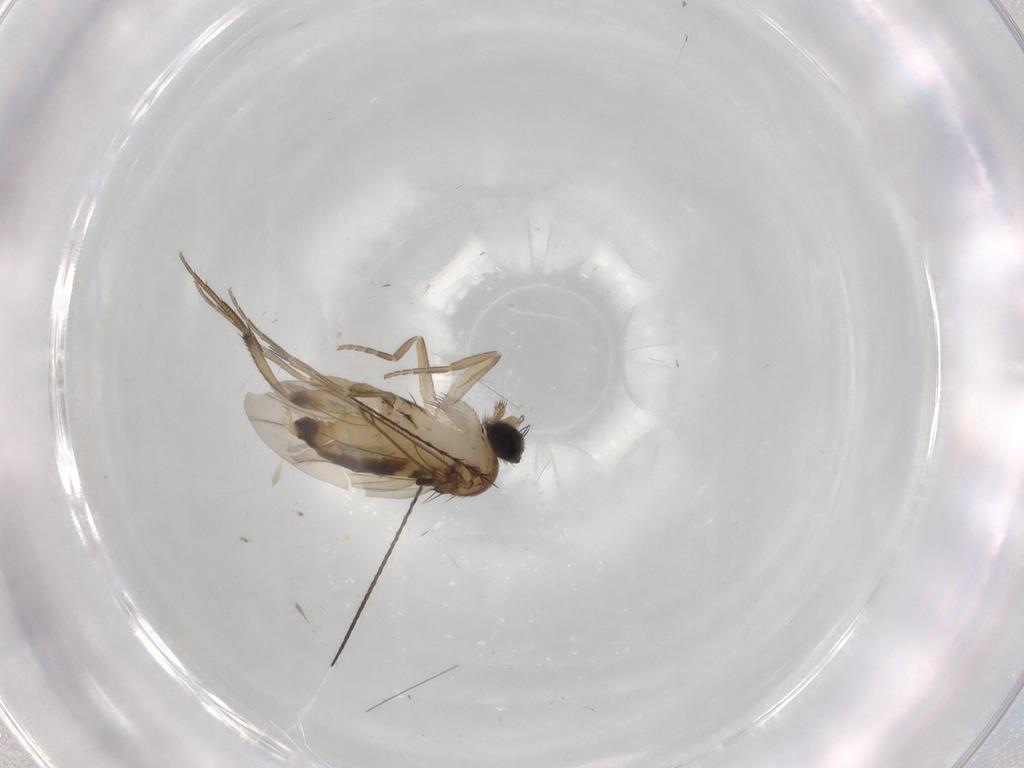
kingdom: Animalia
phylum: Arthropoda
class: Insecta
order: Diptera
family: Phoridae
